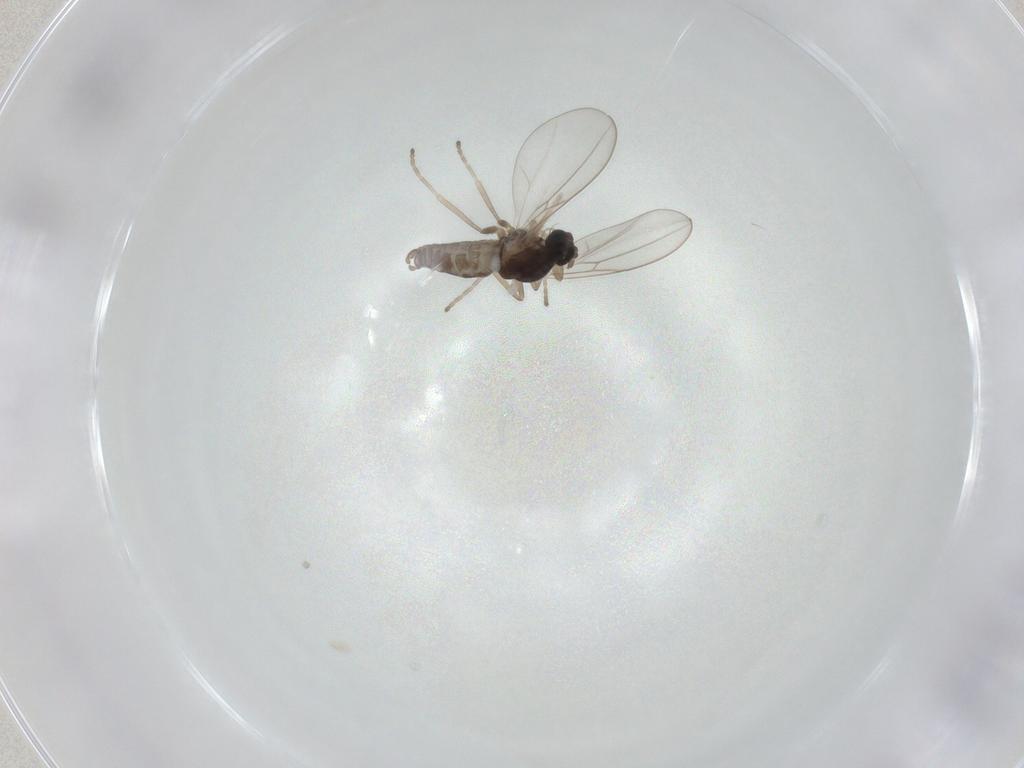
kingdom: Animalia
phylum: Arthropoda
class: Insecta
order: Diptera
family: Cecidomyiidae
